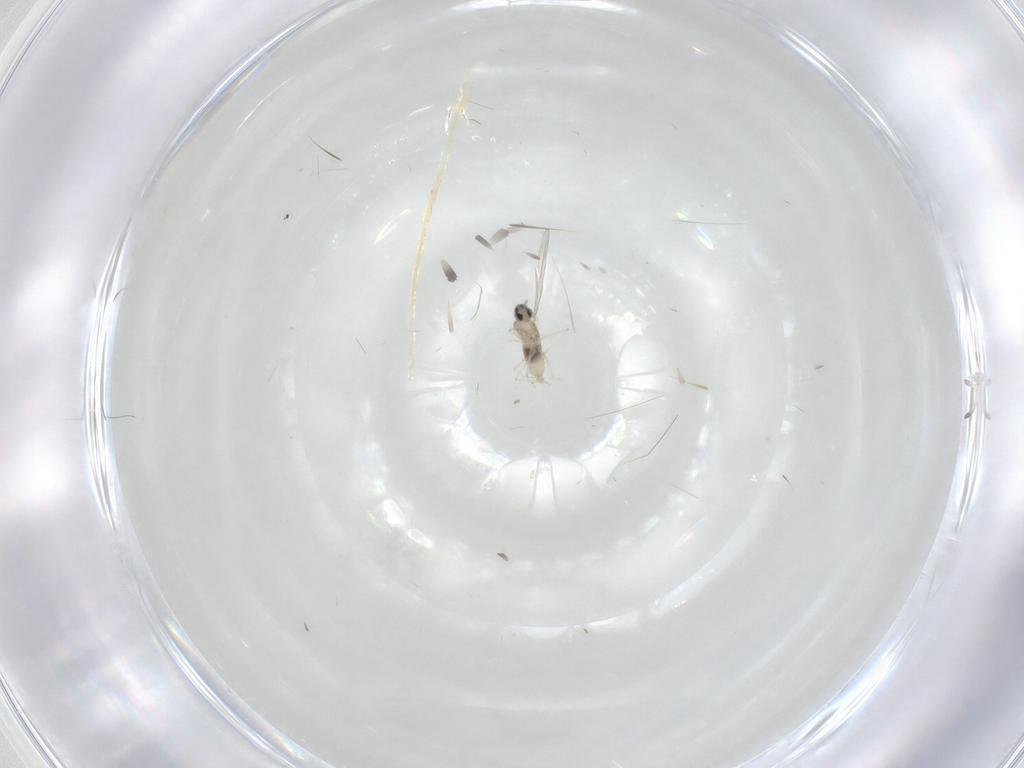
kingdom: Animalia
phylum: Arthropoda
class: Insecta
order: Diptera
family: Cecidomyiidae
